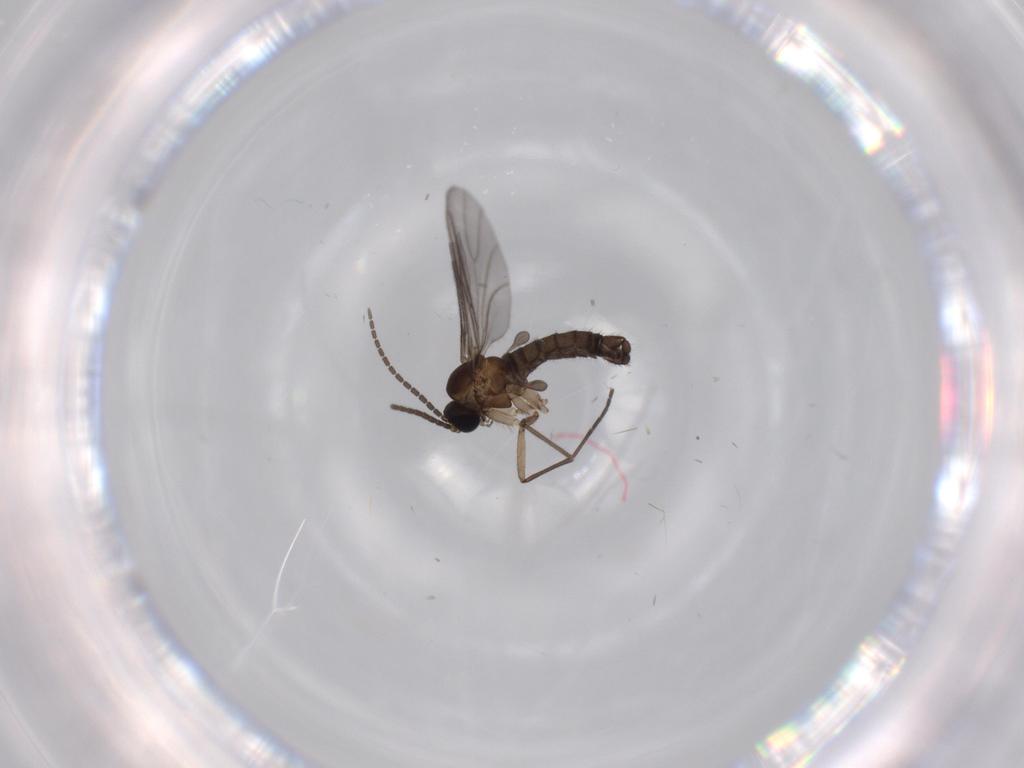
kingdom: Animalia
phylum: Arthropoda
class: Insecta
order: Diptera
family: Sciaridae
